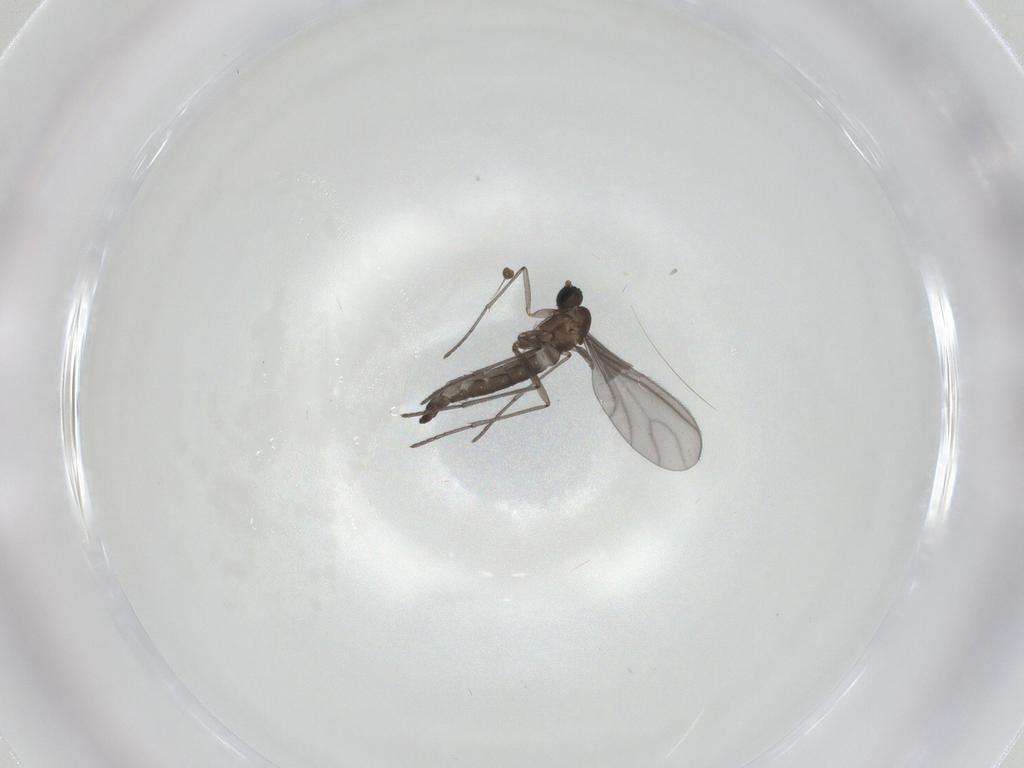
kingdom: Animalia
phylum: Arthropoda
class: Insecta
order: Diptera
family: Sciaridae
